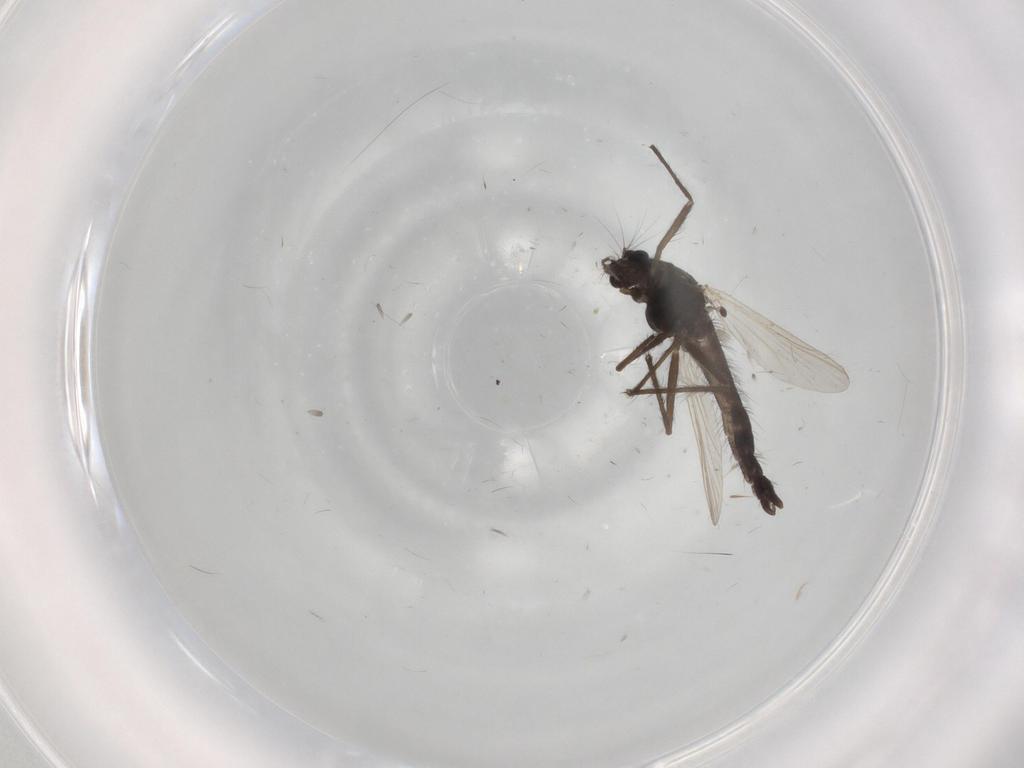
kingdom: Animalia
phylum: Arthropoda
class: Insecta
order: Diptera
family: Chironomidae
